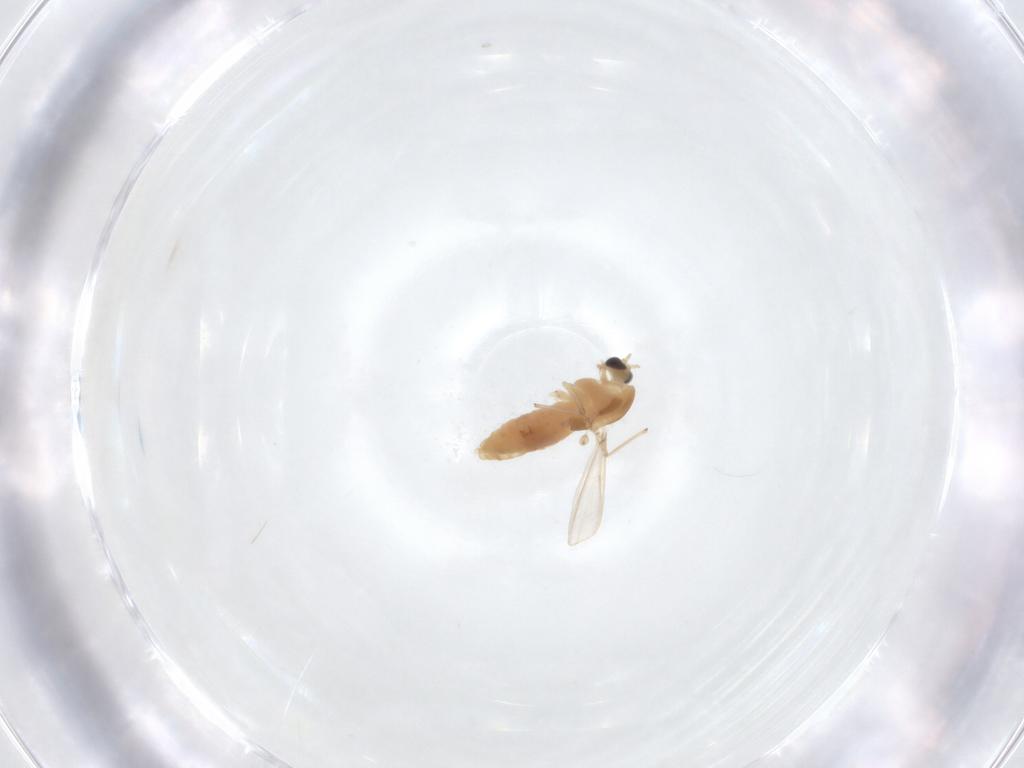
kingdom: Animalia
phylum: Arthropoda
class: Insecta
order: Diptera
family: Chironomidae
